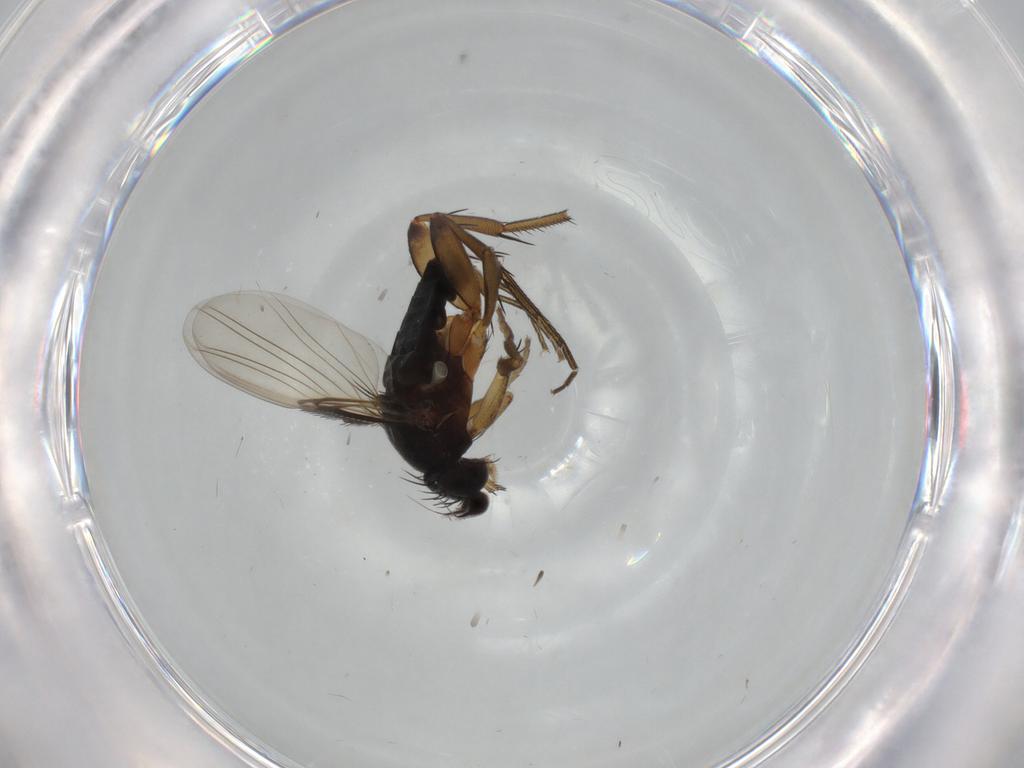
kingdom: Animalia
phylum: Arthropoda
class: Insecta
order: Diptera
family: Phoridae
